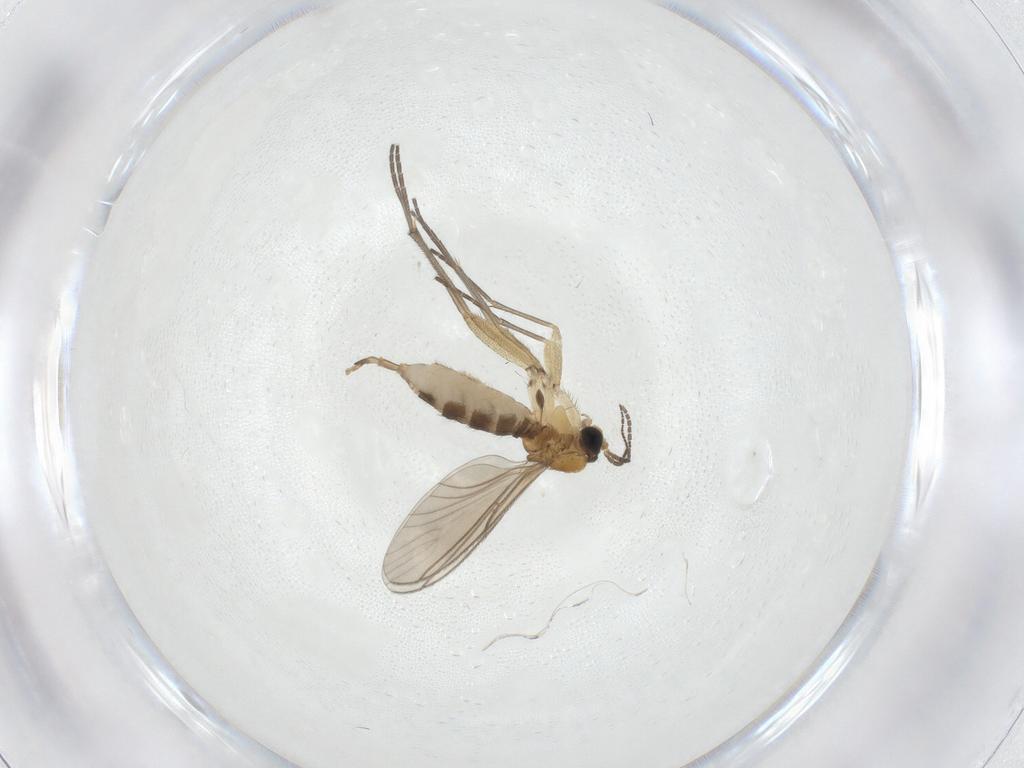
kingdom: Animalia
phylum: Arthropoda
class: Insecta
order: Diptera
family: Sciaridae
